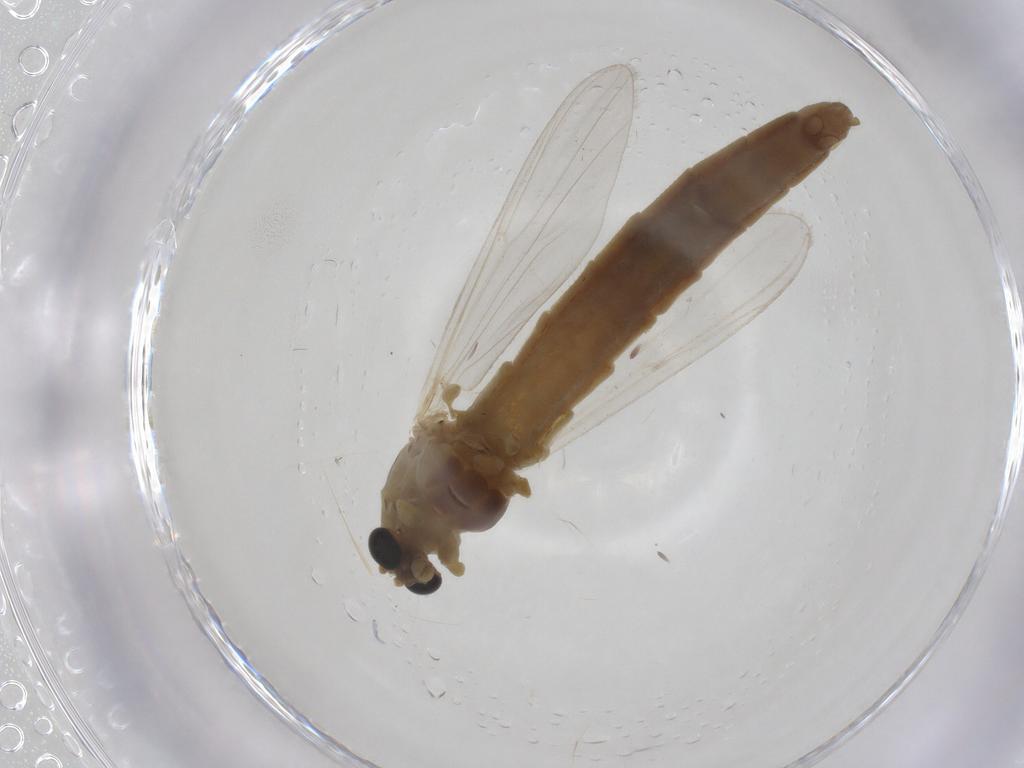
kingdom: Animalia
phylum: Arthropoda
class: Insecta
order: Diptera
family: Chironomidae
